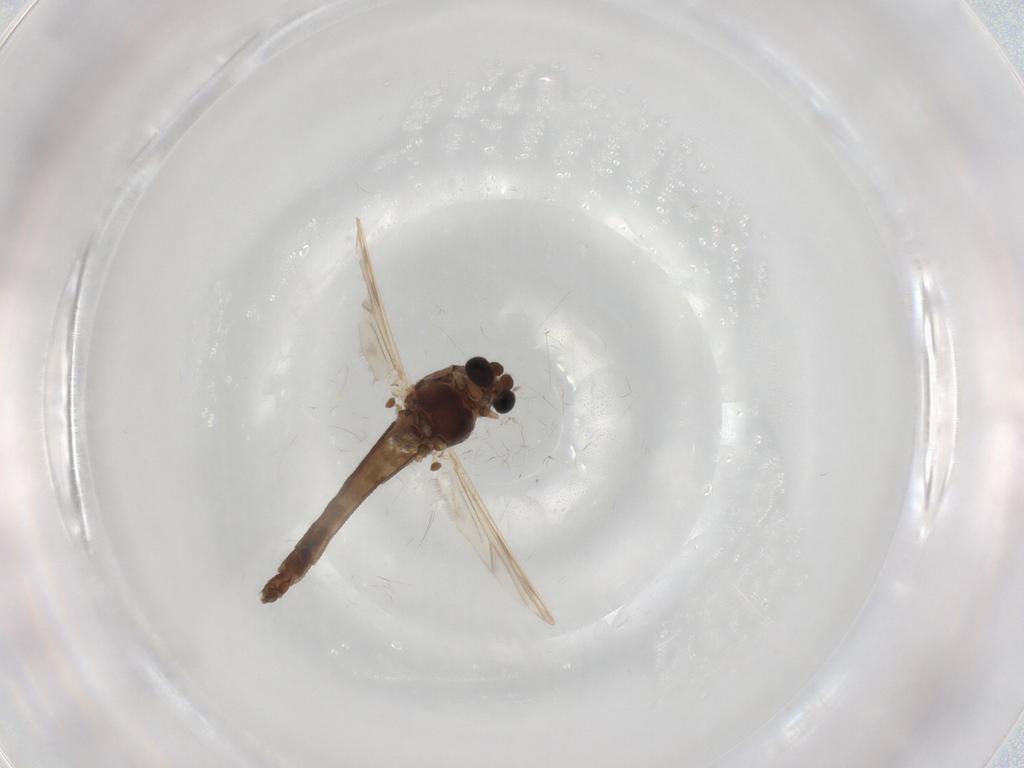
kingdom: Animalia
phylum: Arthropoda
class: Insecta
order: Diptera
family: Chironomidae
